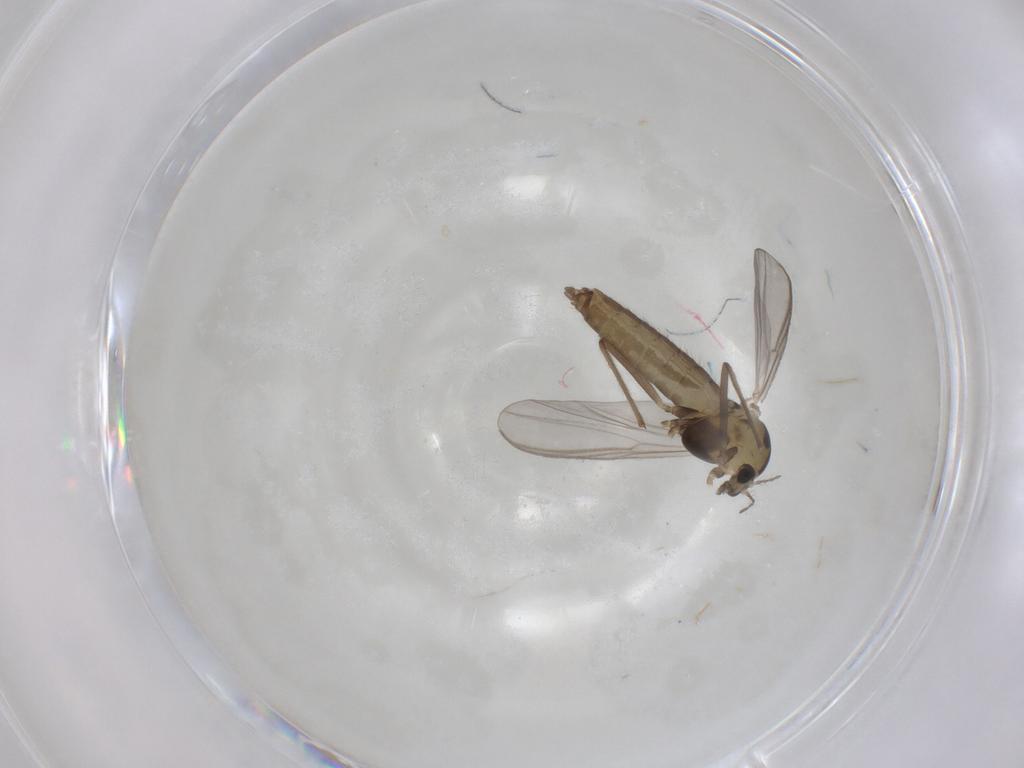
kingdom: Animalia
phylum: Arthropoda
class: Insecta
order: Diptera
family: Chironomidae
